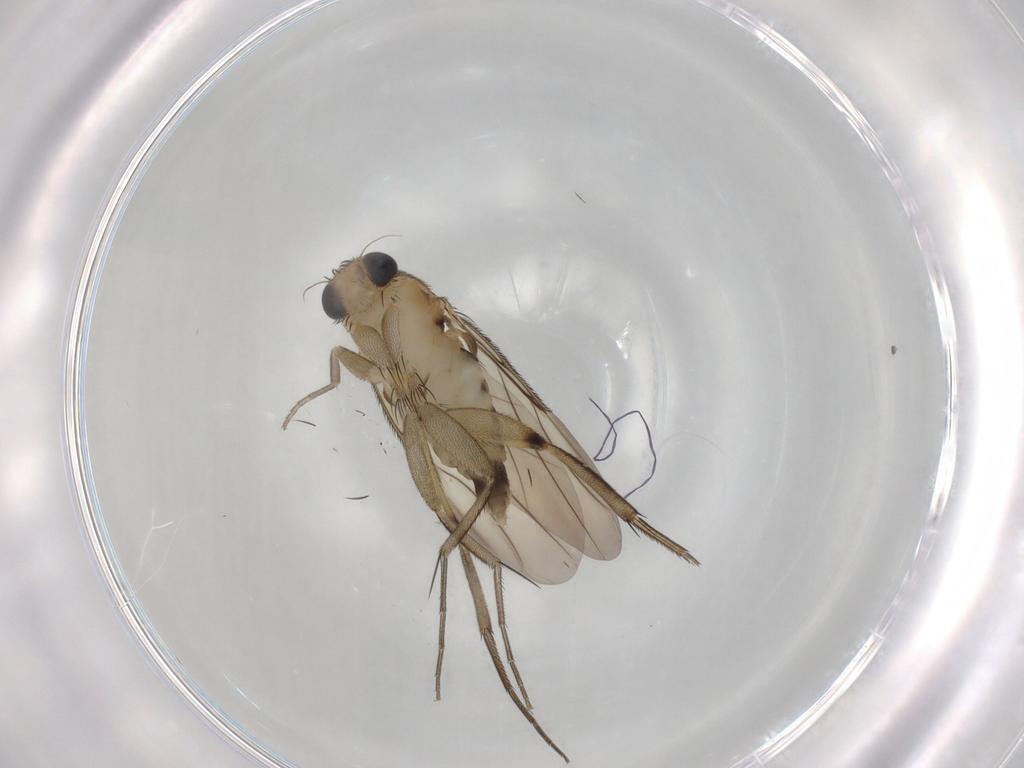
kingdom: Animalia
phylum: Arthropoda
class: Insecta
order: Diptera
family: Phoridae
